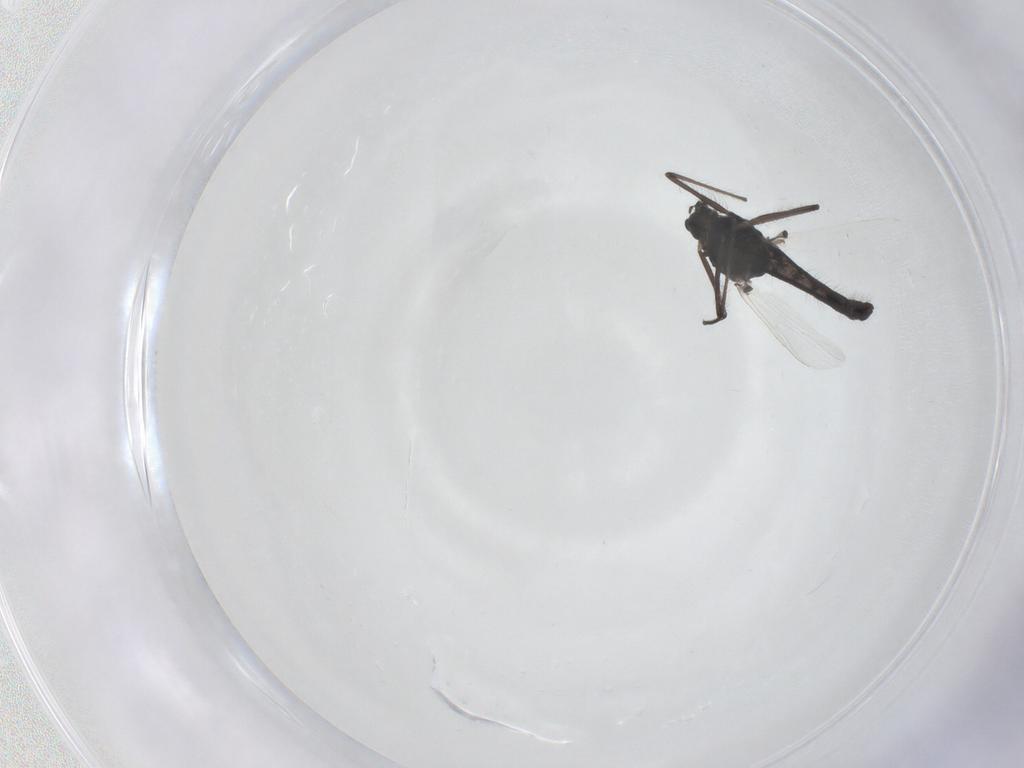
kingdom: Animalia
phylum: Arthropoda
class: Insecta
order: Diptera
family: Chironomidae
